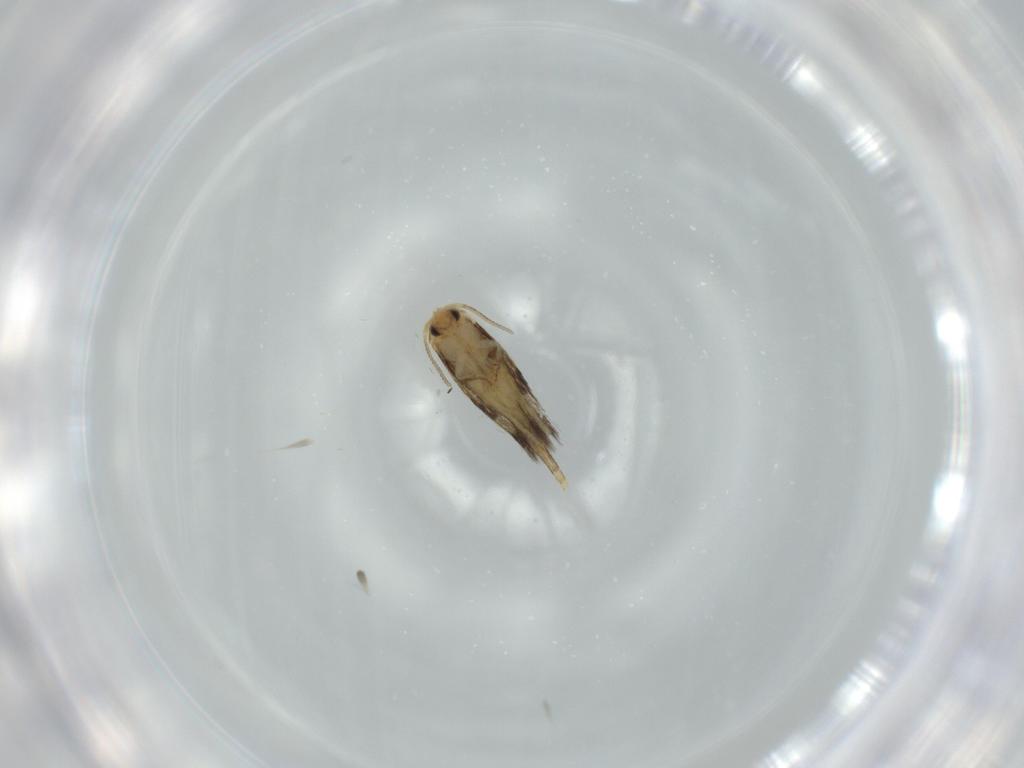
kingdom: Animalia
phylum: Arthropoda
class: Insecta
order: Lepidoptera
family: Nepticulidae
